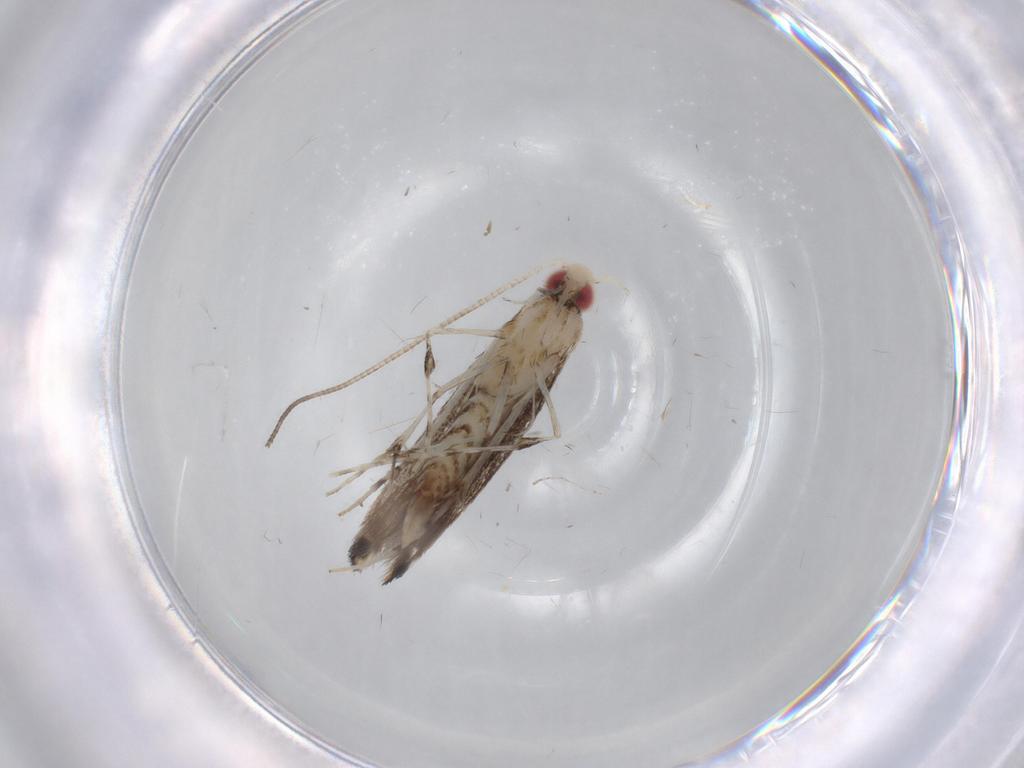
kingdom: Animalia
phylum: Arthropoda
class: Insecta
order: Lepidoptera
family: Gracillariidae
